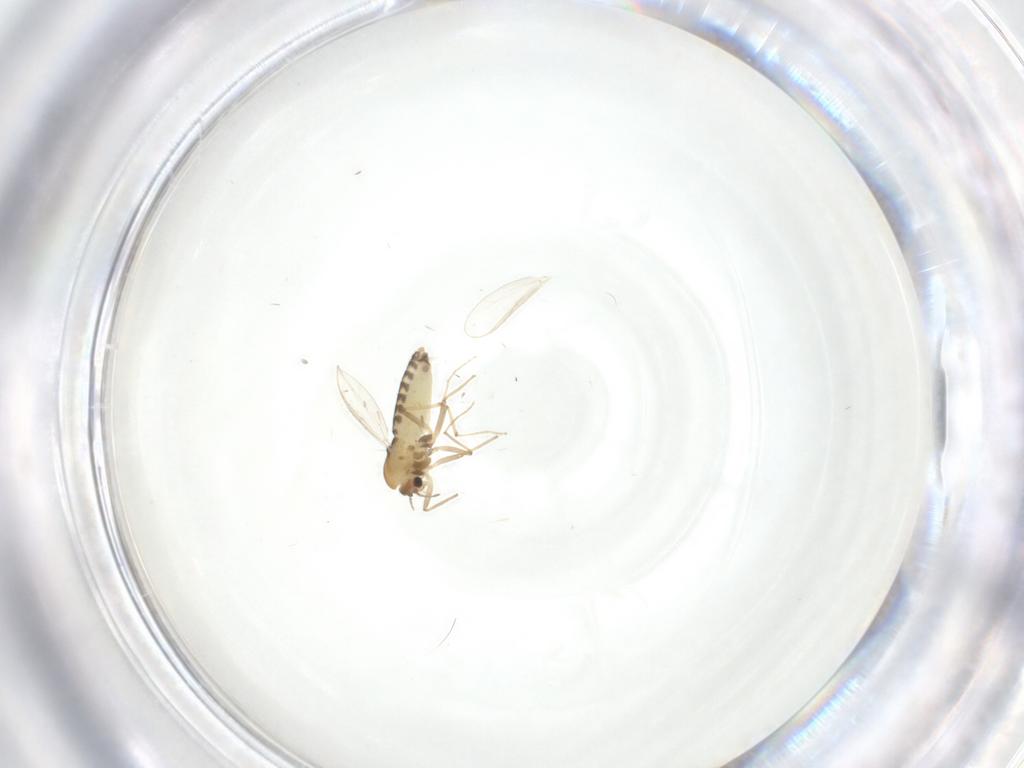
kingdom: Animalia
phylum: Arthropoda
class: Insecta
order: Diptera
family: Chironomidae
